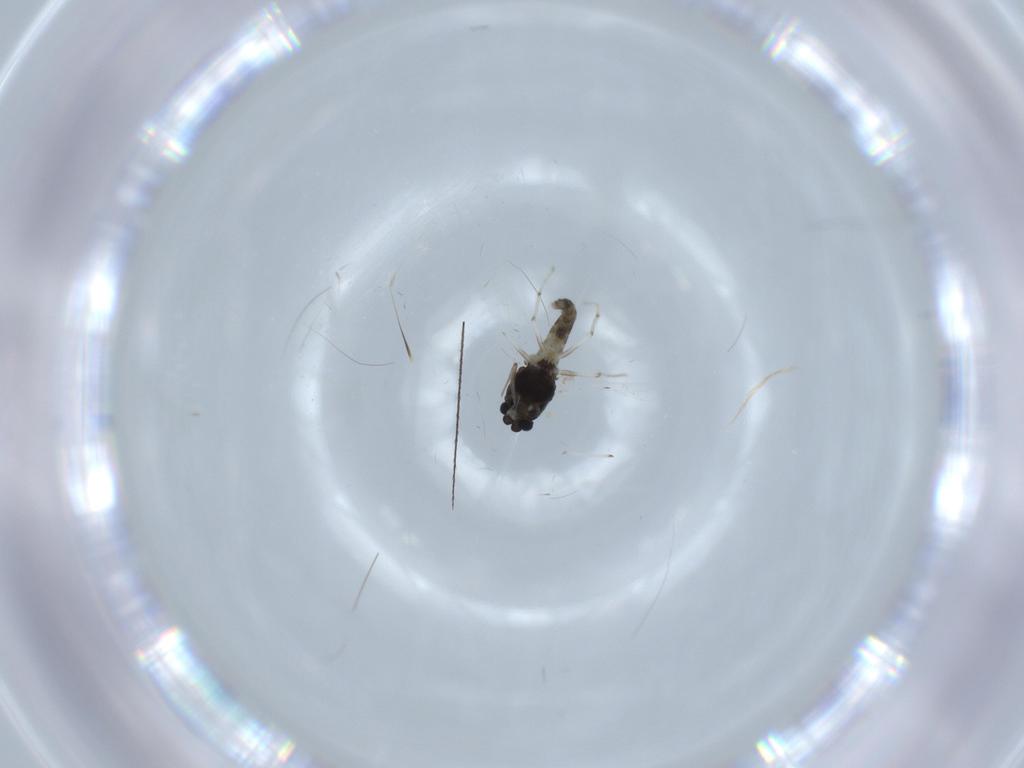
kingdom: Animalia
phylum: Arthropoda
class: Insecta
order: Diptera
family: Chironomidae
